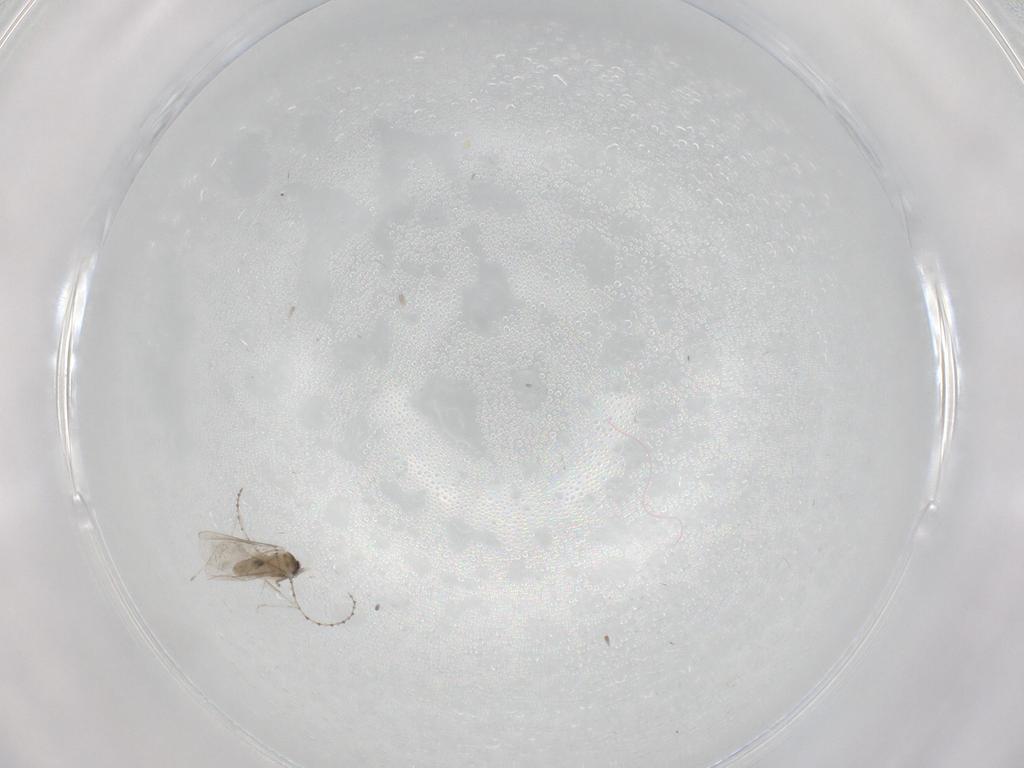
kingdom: Animalia
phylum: Arthropoda
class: Insecta
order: Diptera
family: Cecidomyiidae
